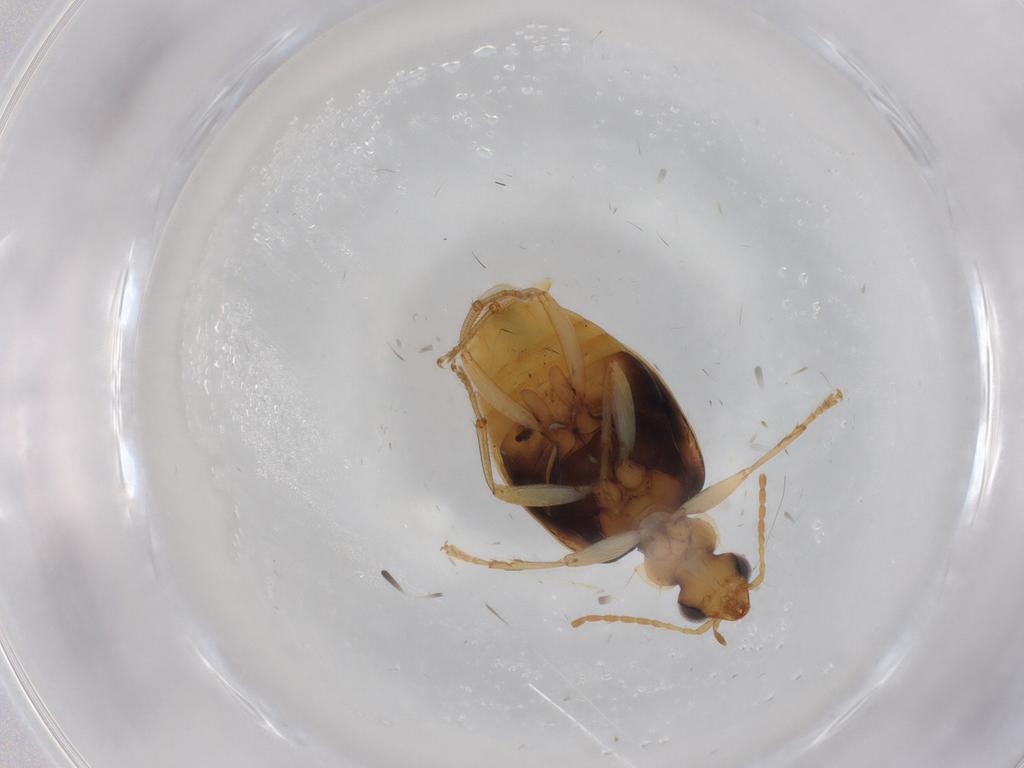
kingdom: Animalia
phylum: Arthropoda
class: Insecta
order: Coleoptera
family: Carabidae
